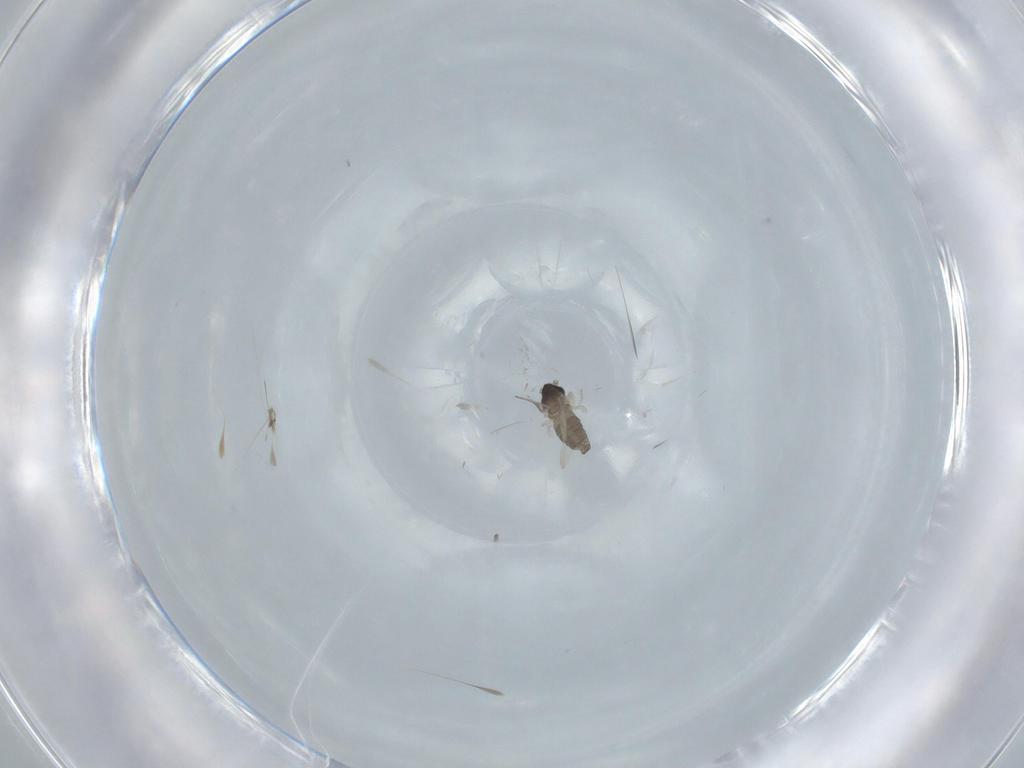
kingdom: Animalia
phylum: Arthropoda
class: Insecta
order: Diptera
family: Cecidomyiidae
